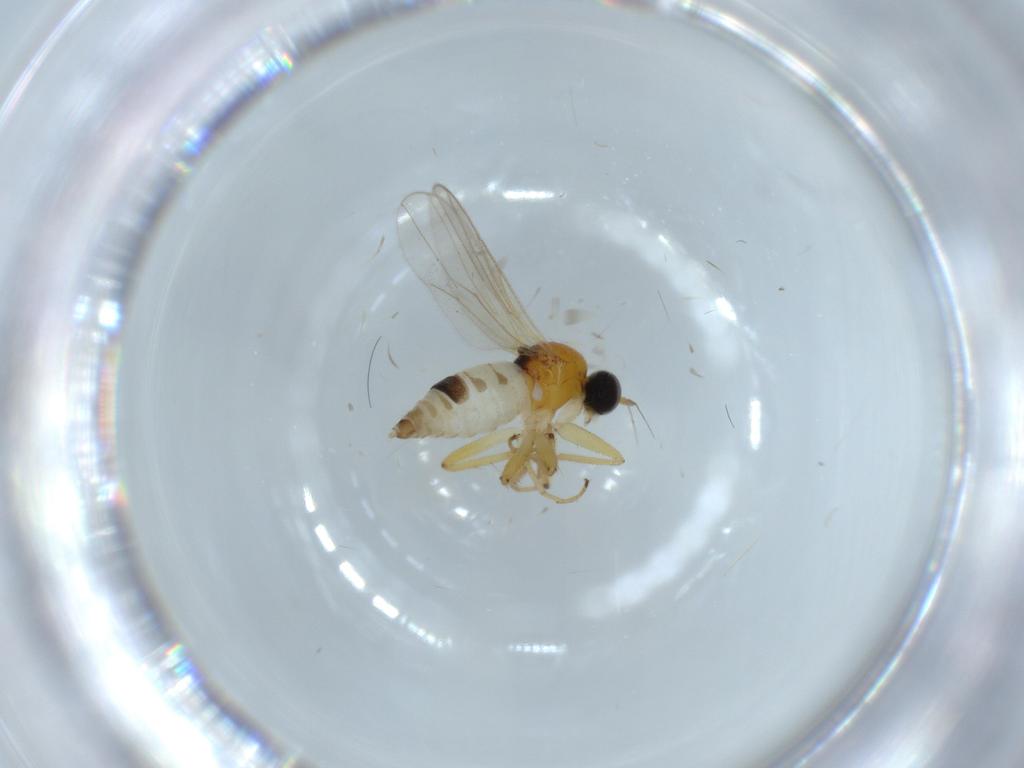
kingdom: Animalia
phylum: Arthropoda
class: Insecta
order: Diptera
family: Hybotidae
